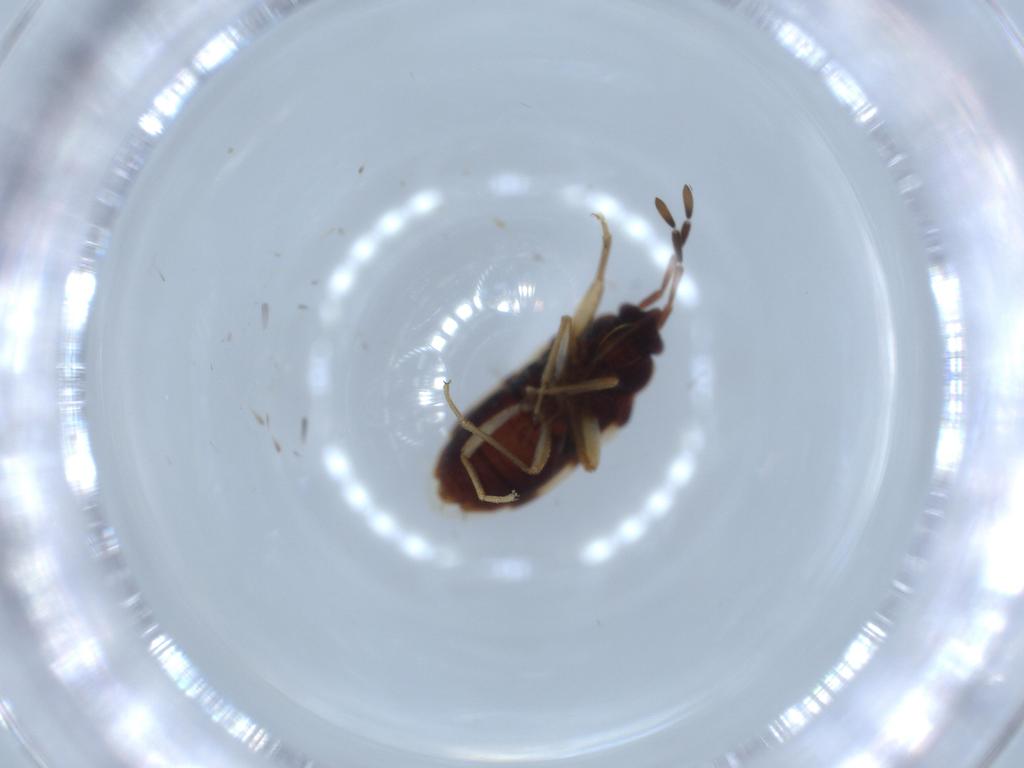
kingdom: Animalia
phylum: Arthropoda
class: Insecta
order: Hemiptera
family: Rhyparochromidae
